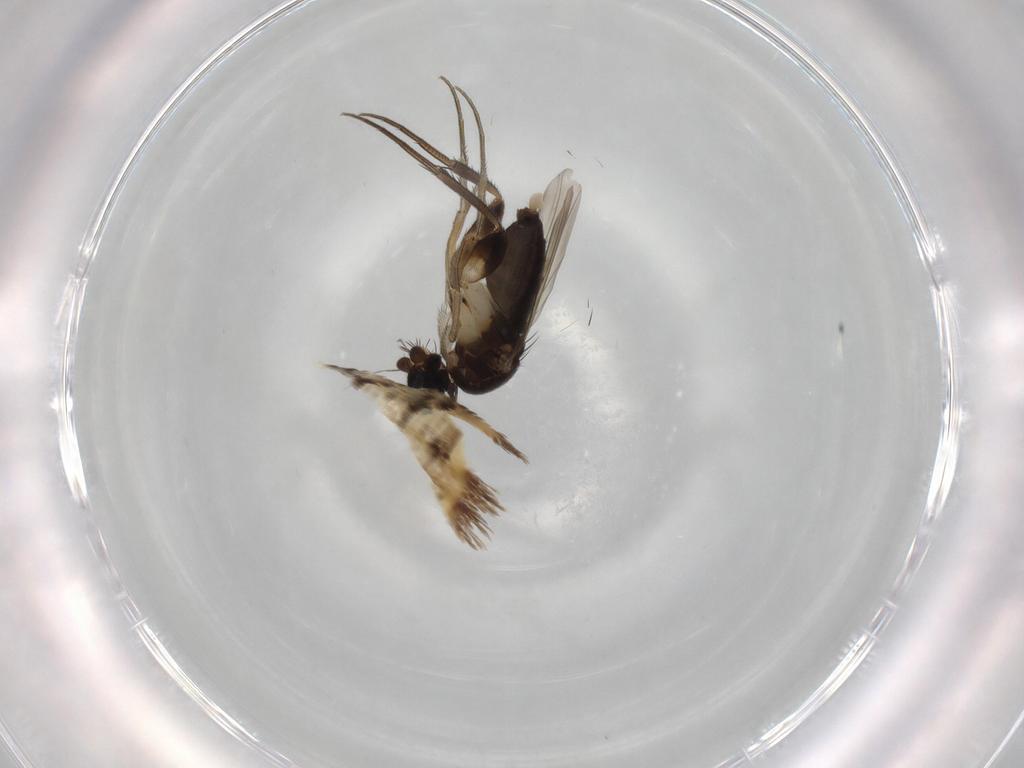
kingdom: Animalia
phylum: Arthropoda
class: Insecta
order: Diptera
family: Phoridae
